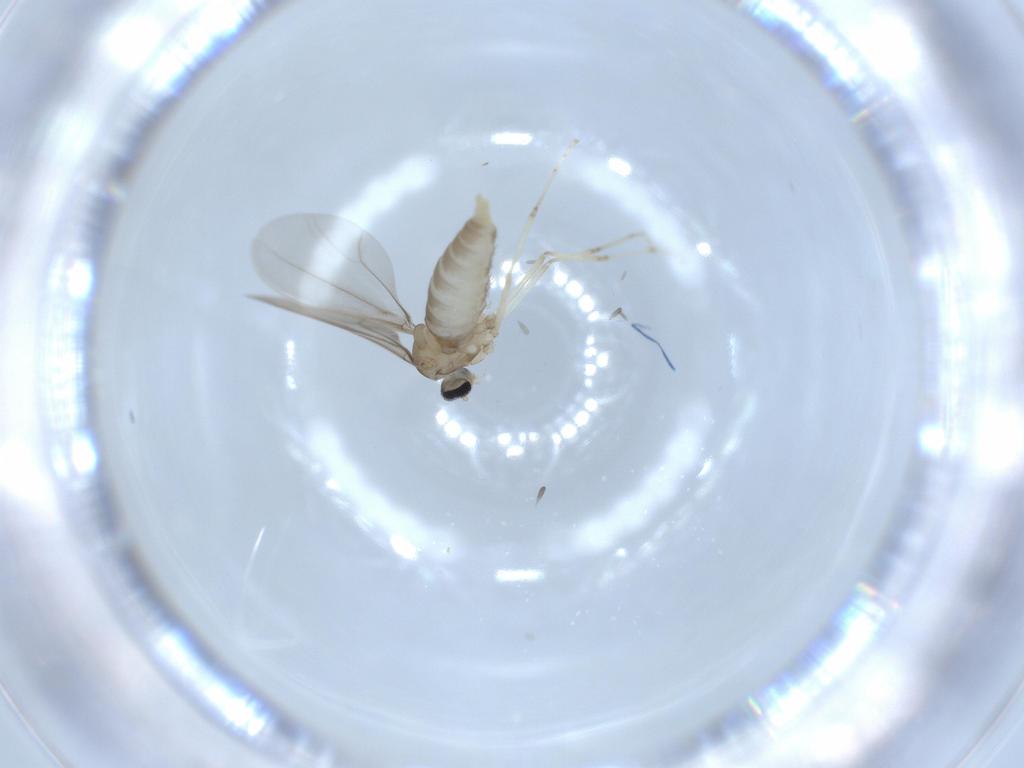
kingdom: Animalia
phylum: Arthropoda
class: Insecta
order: Diptera
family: Cecidomyiidae
